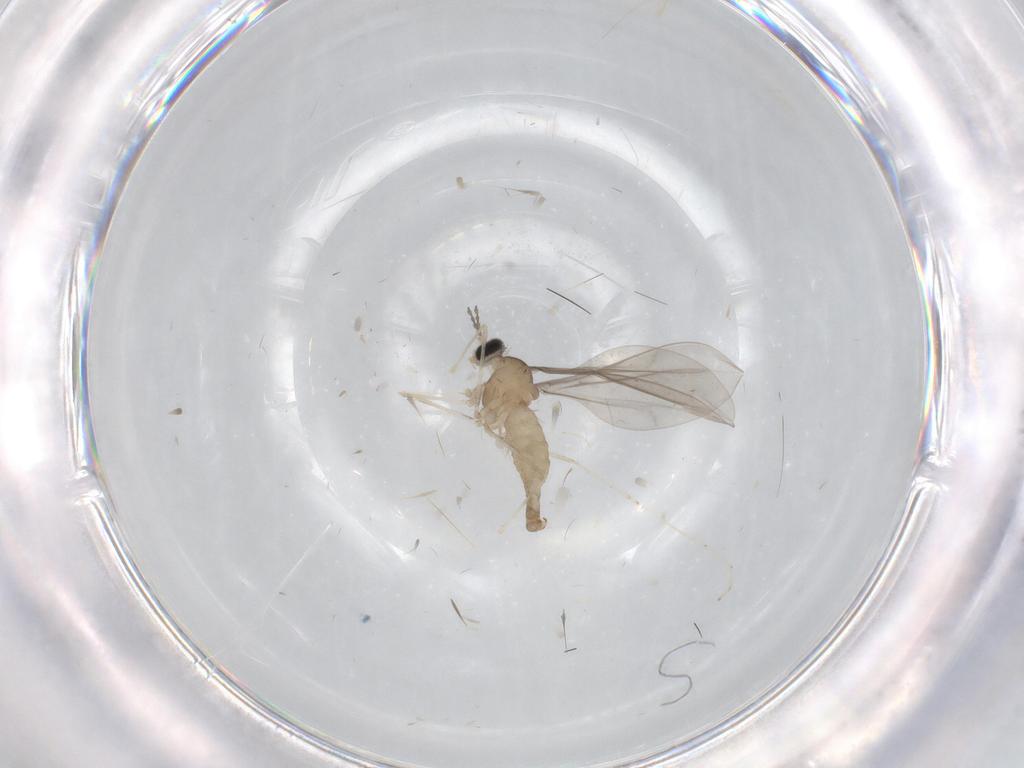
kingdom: Animalia
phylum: Arthropoda
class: Insecta
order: Diptera
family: Cecidomyiidae
